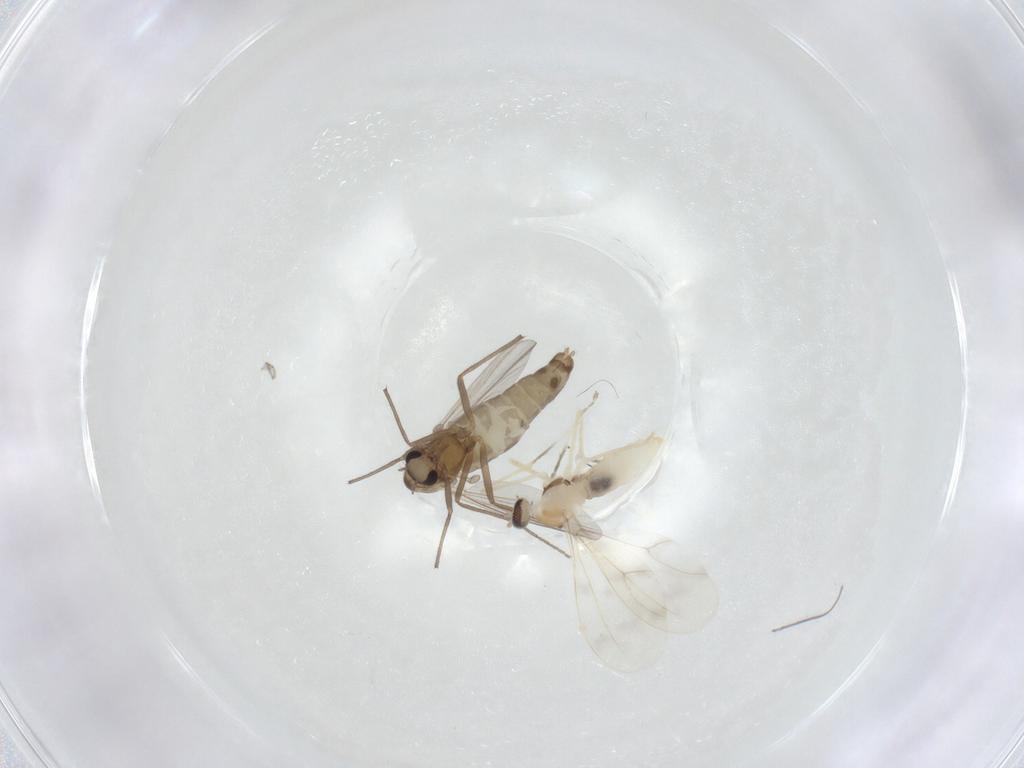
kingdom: Animalia
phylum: Arthropoda
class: Insecta
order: Diptera
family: Chironomidae
